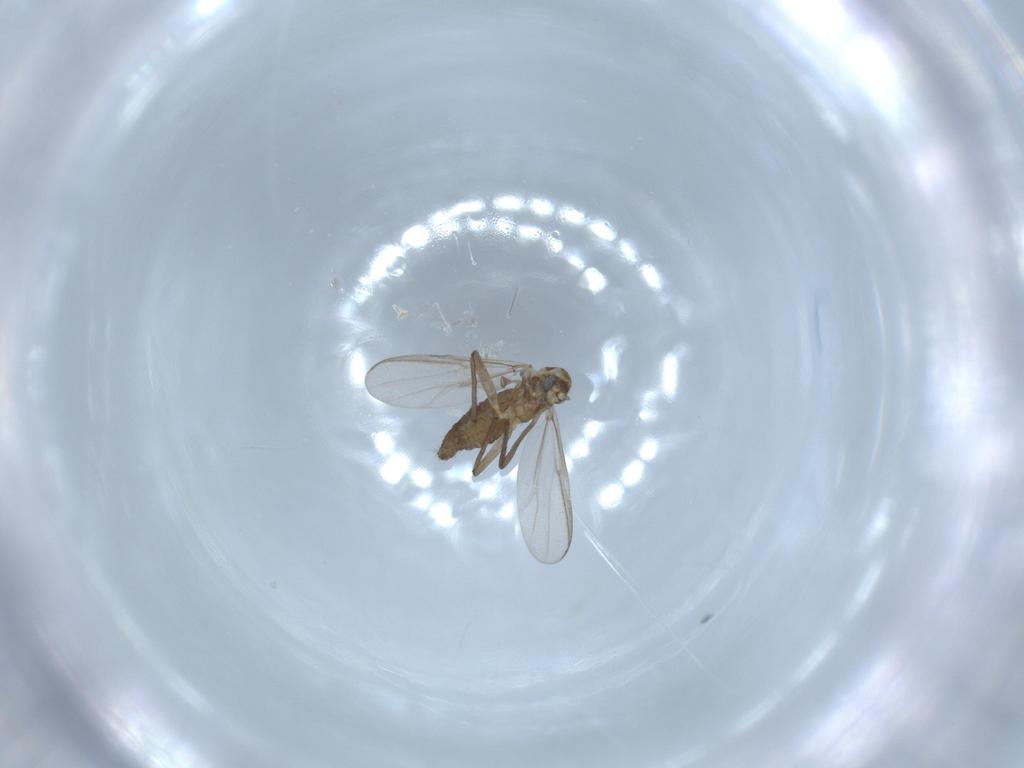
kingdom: Animalia
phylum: Arthropoda
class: Insecta
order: Diptera
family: Chironomidae
